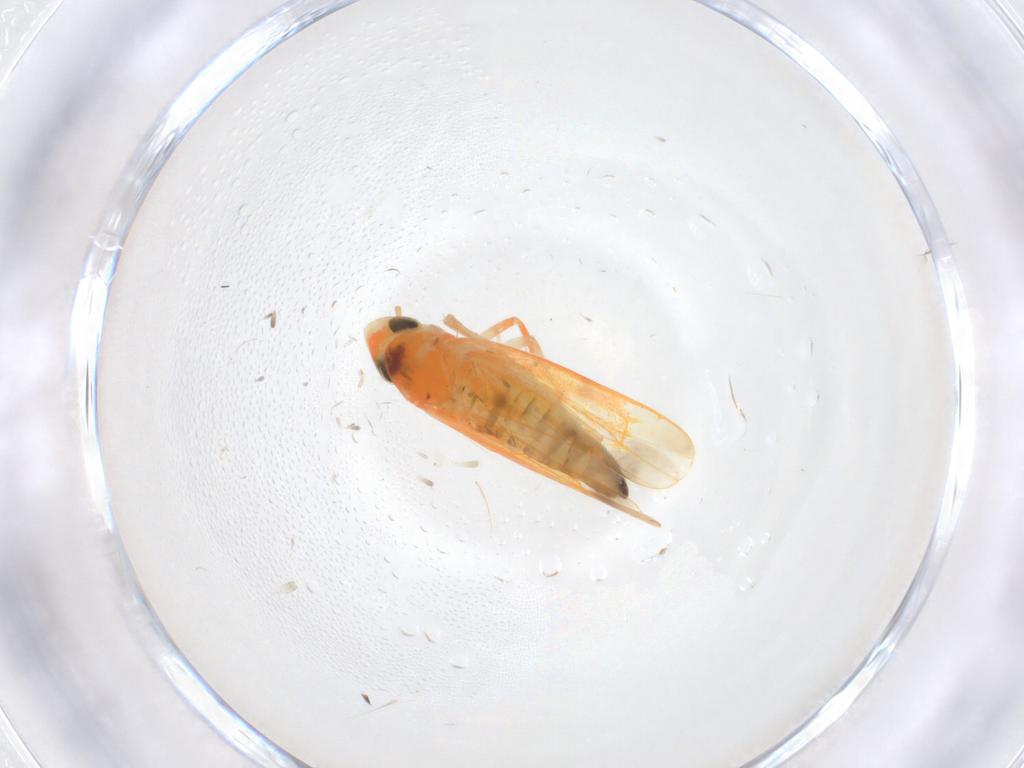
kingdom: Animalia
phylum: Arthropoda
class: Insecta
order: Hemiptera
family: Cicadellidae
